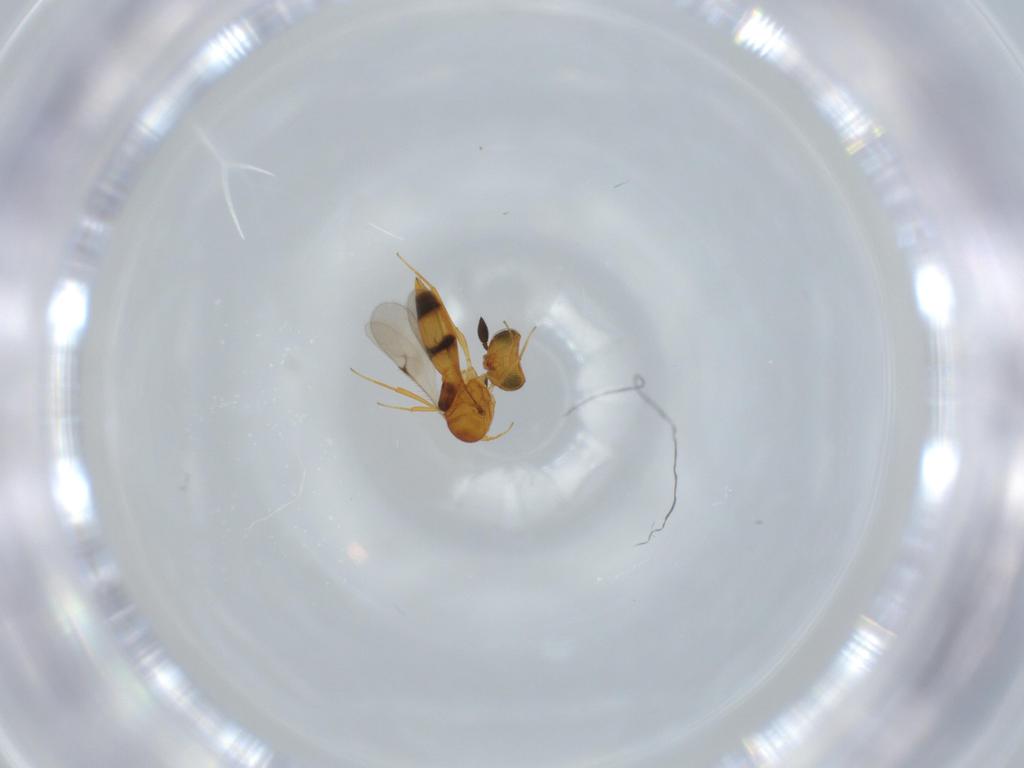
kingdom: Animalia
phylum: Arthropoda
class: Insecta
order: Hymenoptera
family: Scelionidae
